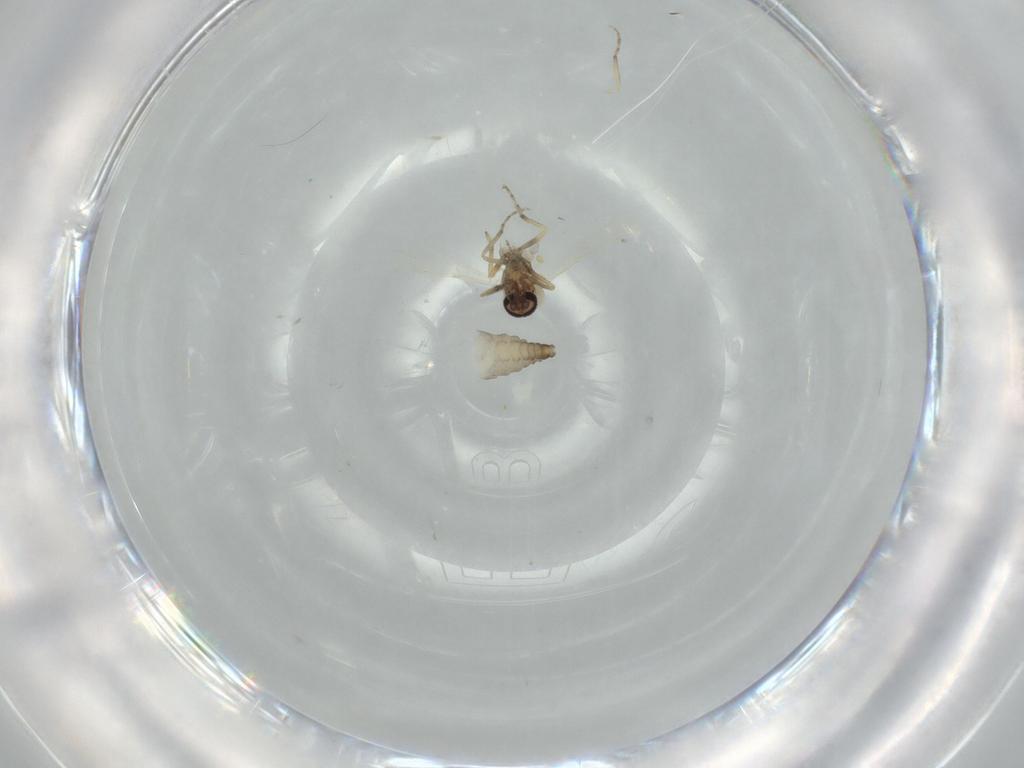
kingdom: Animalia
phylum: Arthropoda
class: Insecta
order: Diptera
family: Ceratopogonidae
